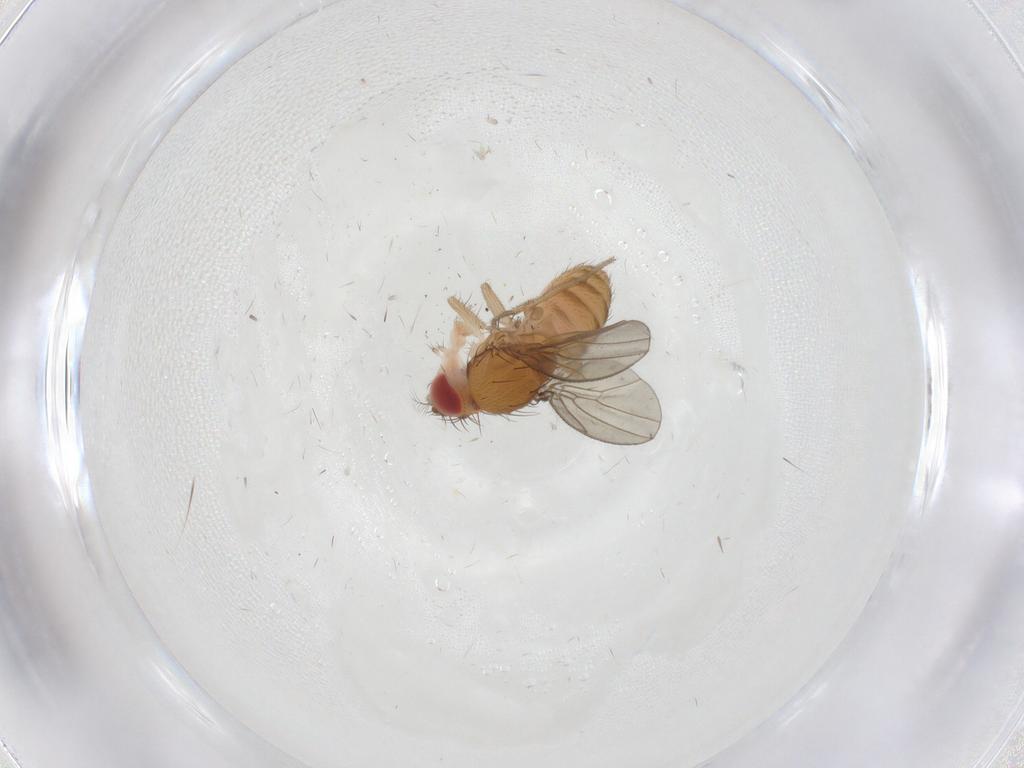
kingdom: Animalia
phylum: Arthropoda
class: Insecta
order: Diptera
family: Drosophilidae
